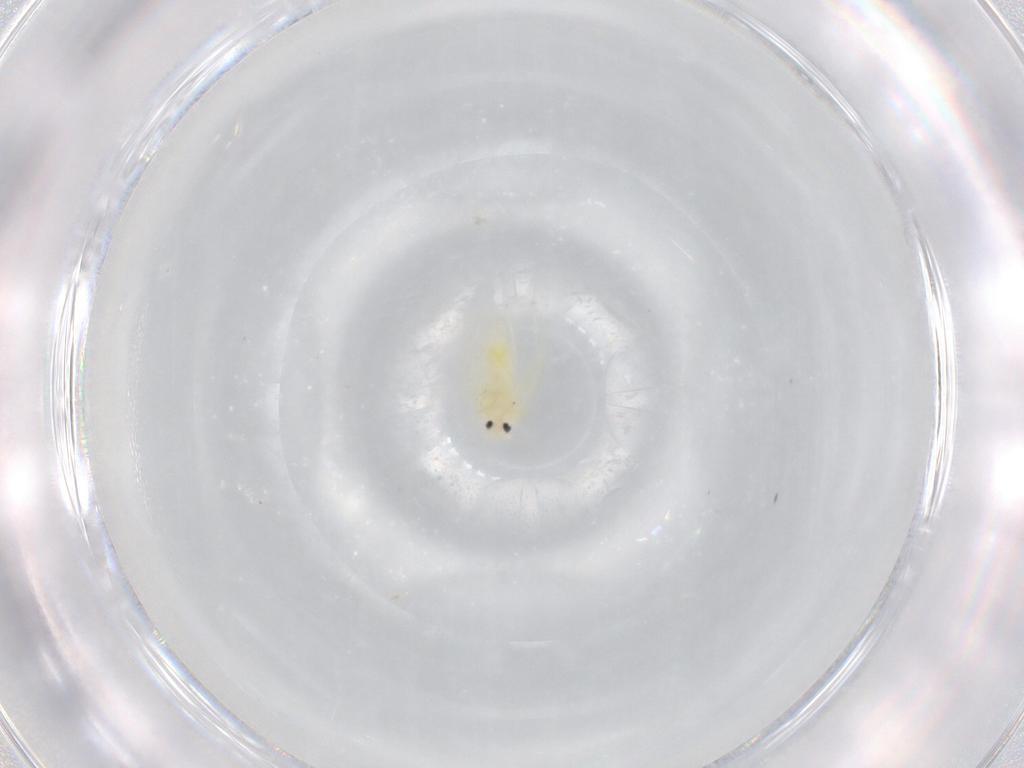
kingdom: Animalia
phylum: Arthropoda
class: Insecta
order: Hemiptera
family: Aleyrodidae
